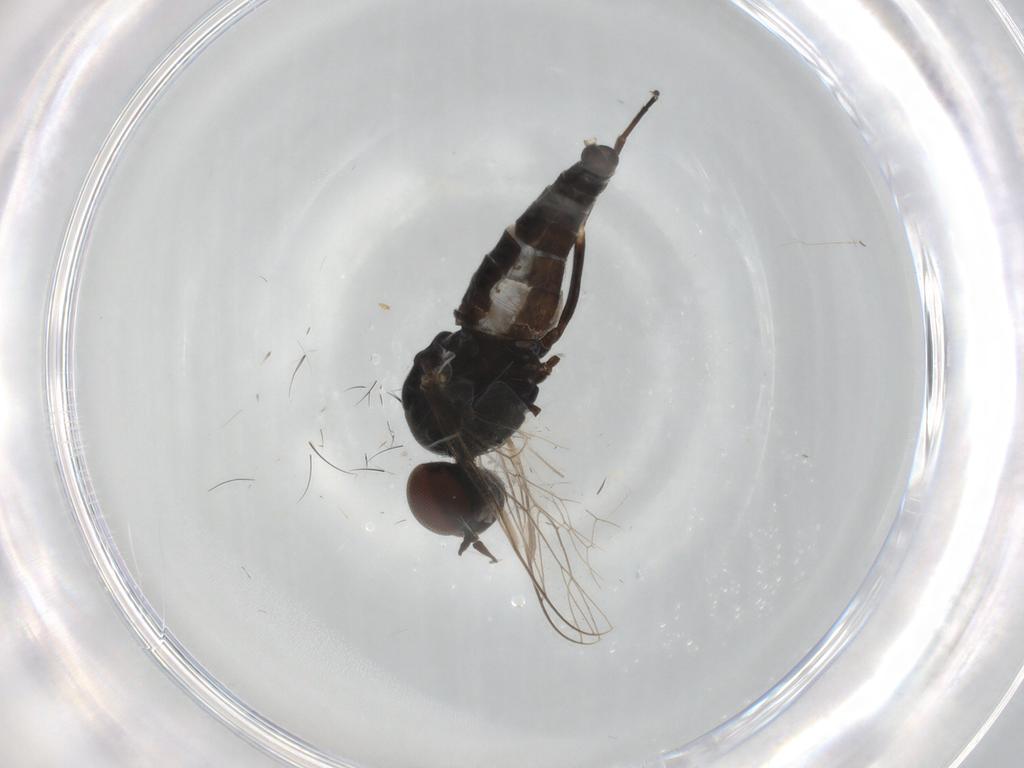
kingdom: Animalia
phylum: Arthropoda
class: Insecta
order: Diptera
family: Scenopinidae
